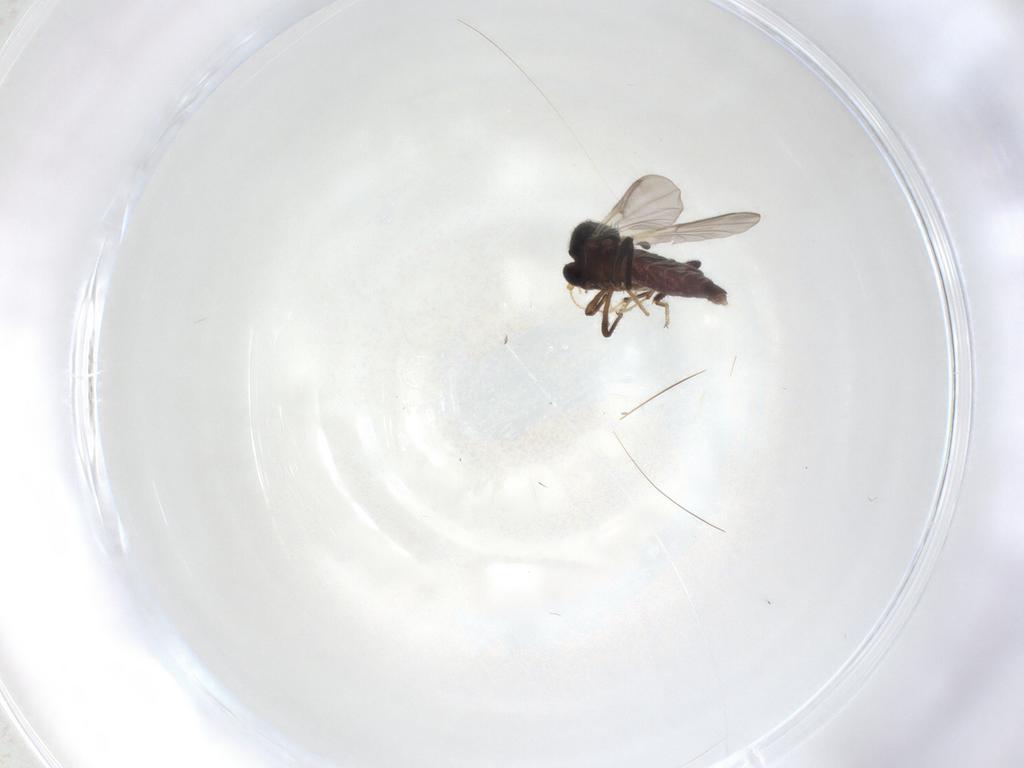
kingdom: Animalia
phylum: Arthropoda
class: Insecta
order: Diptera
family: Ceratopogonidae
